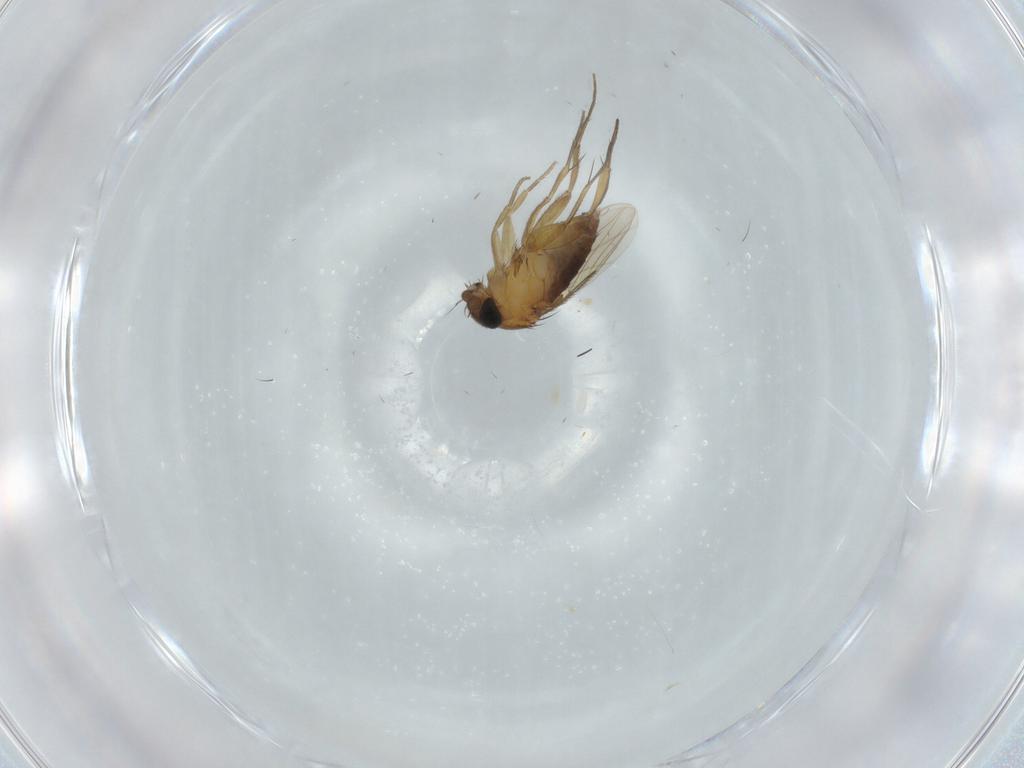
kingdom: Animalia
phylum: Arthropoda
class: Insecta
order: Diptera
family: Phoridae
